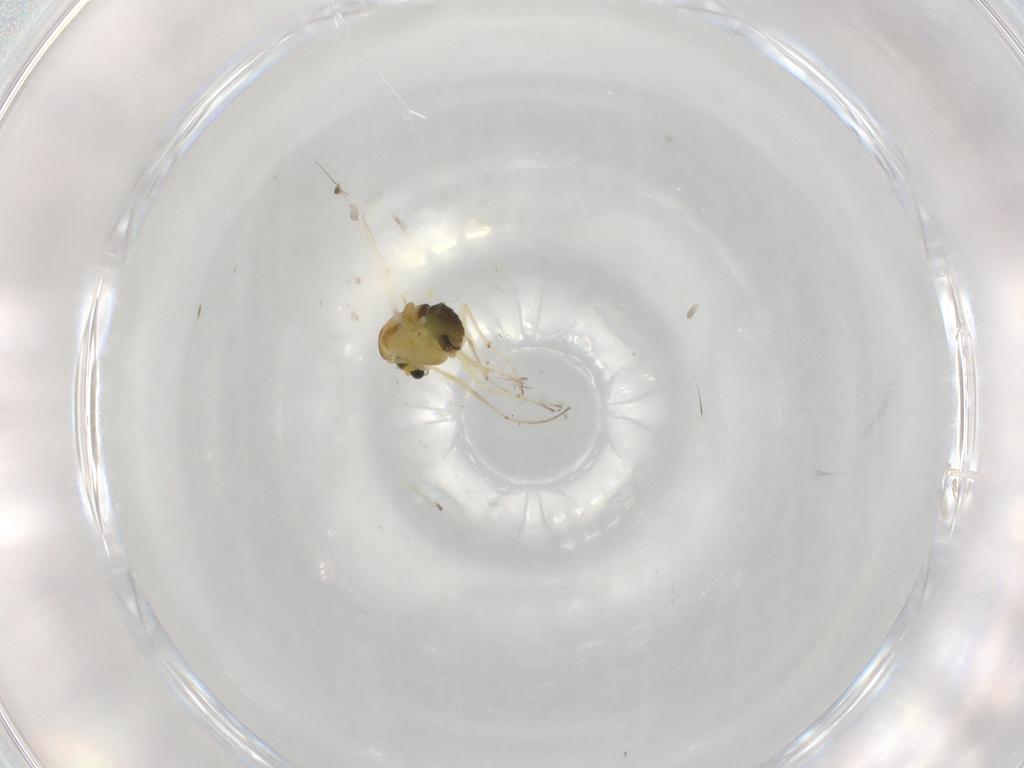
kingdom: Animalia
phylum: Arthropoda
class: Insecta
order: Diptera
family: Chironomidae
